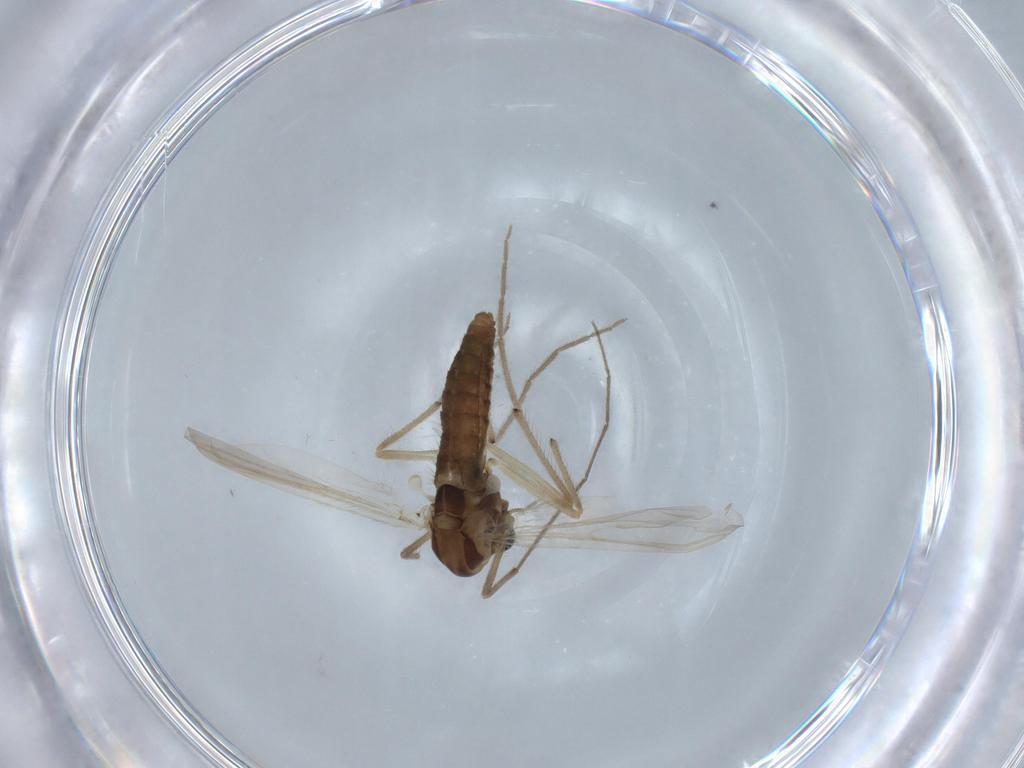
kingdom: Animalia
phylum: Arthropoda
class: Insecta
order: Diptera
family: Chironomidae
